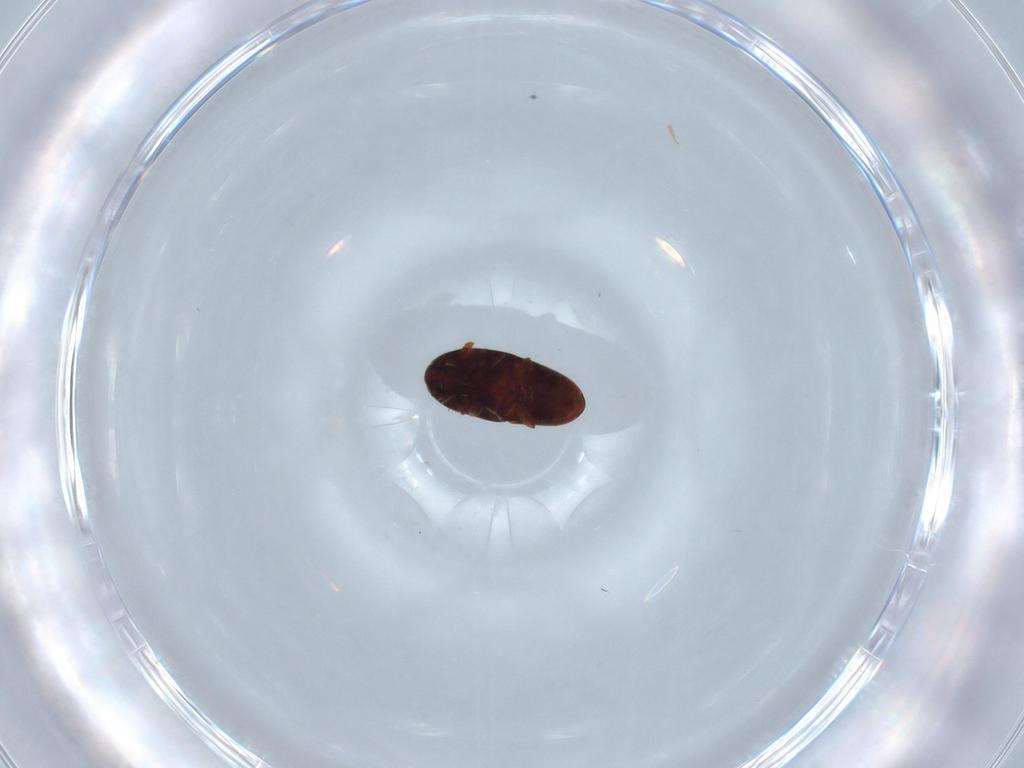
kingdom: Animalia
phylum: Arthropoda
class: Insecta
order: Coleoptera
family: Throscidae
